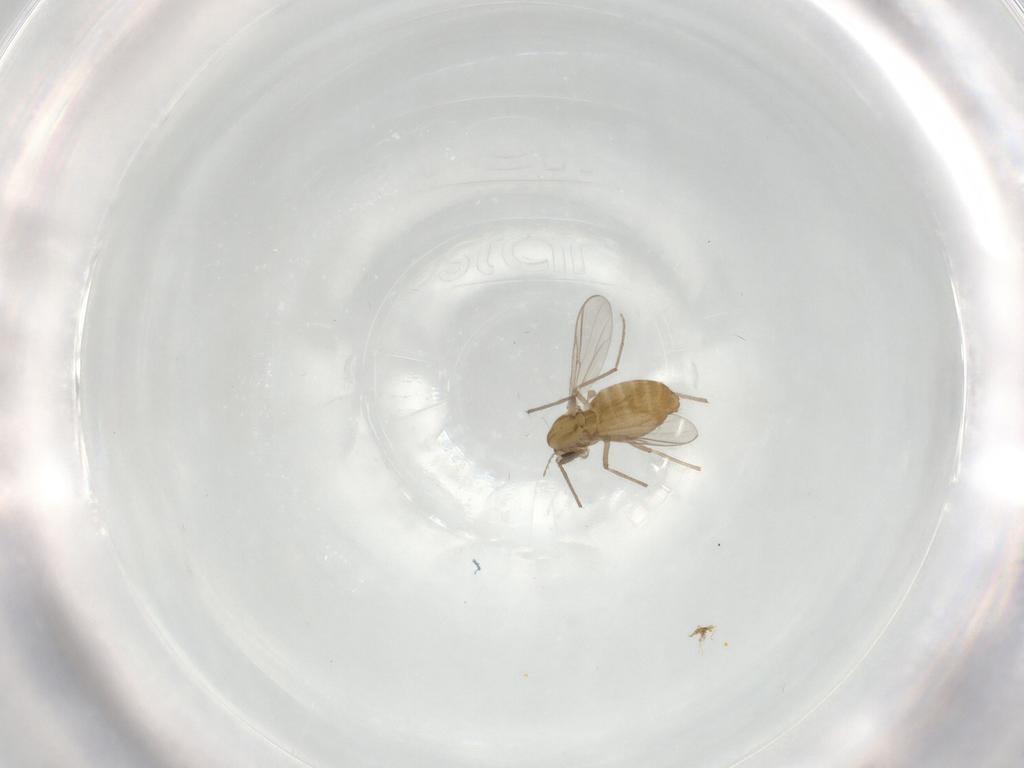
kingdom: Animalia
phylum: Arthropoda
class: Insecta
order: Diptera
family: Chironomidae
